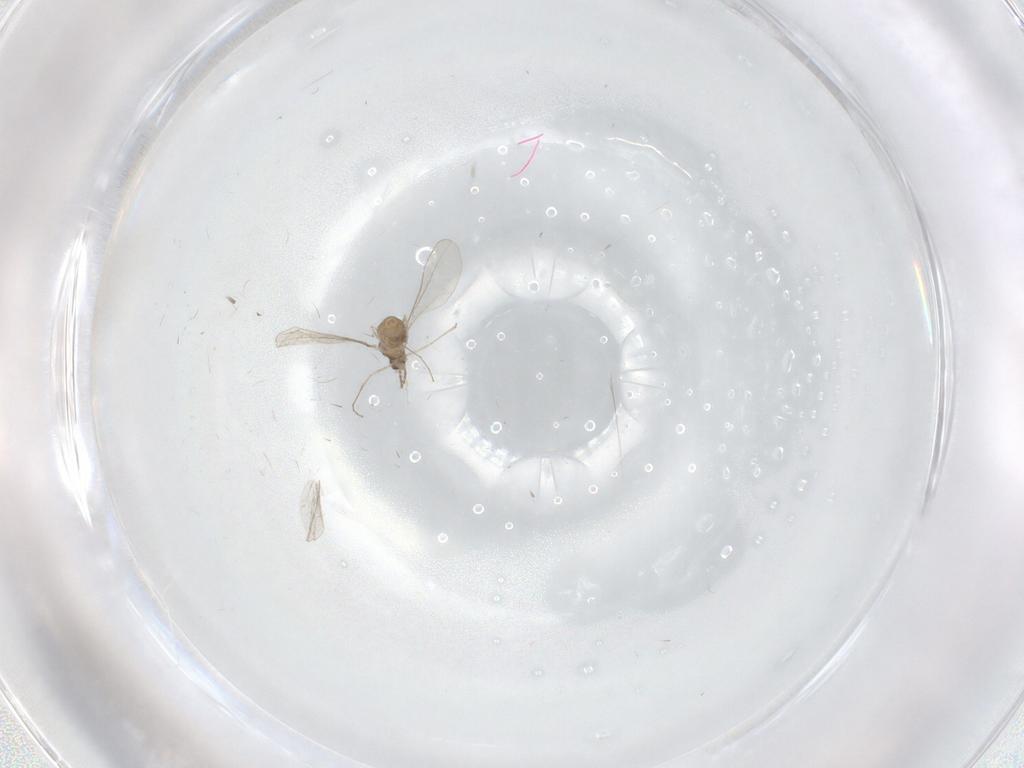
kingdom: Animalia
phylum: Arthropoda
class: Insecta
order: Diptera
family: Cecidomyiidae
